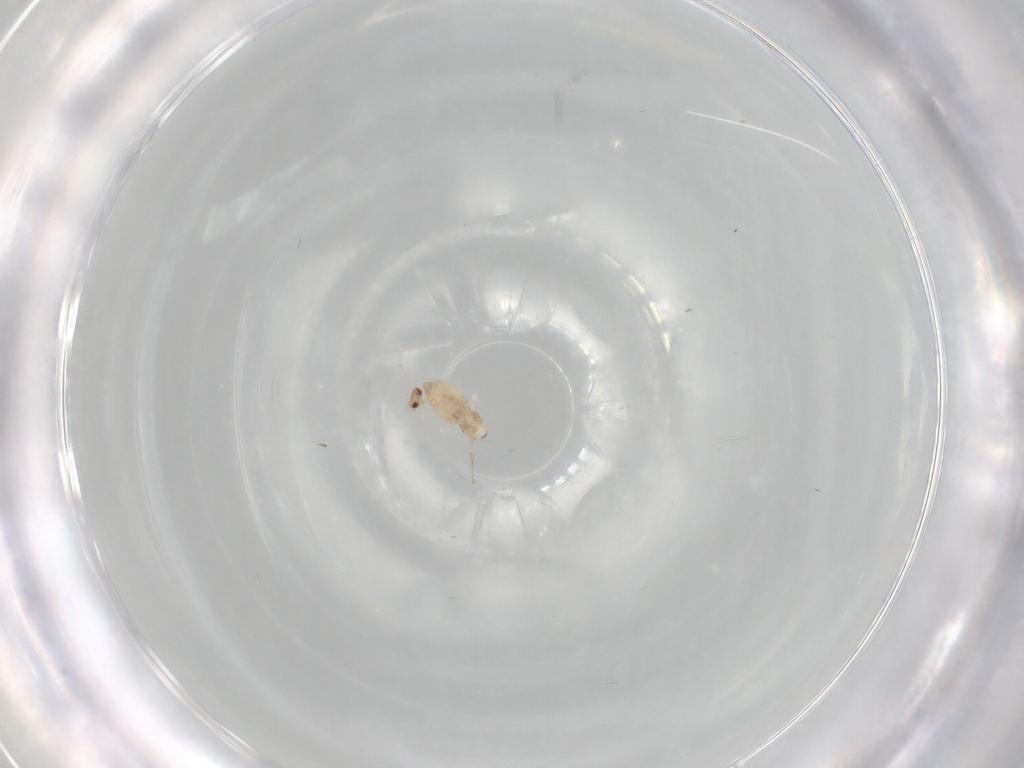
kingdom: Animalia
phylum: Arthropoda
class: Insecta
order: Diptera
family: Cecidomyiidae
